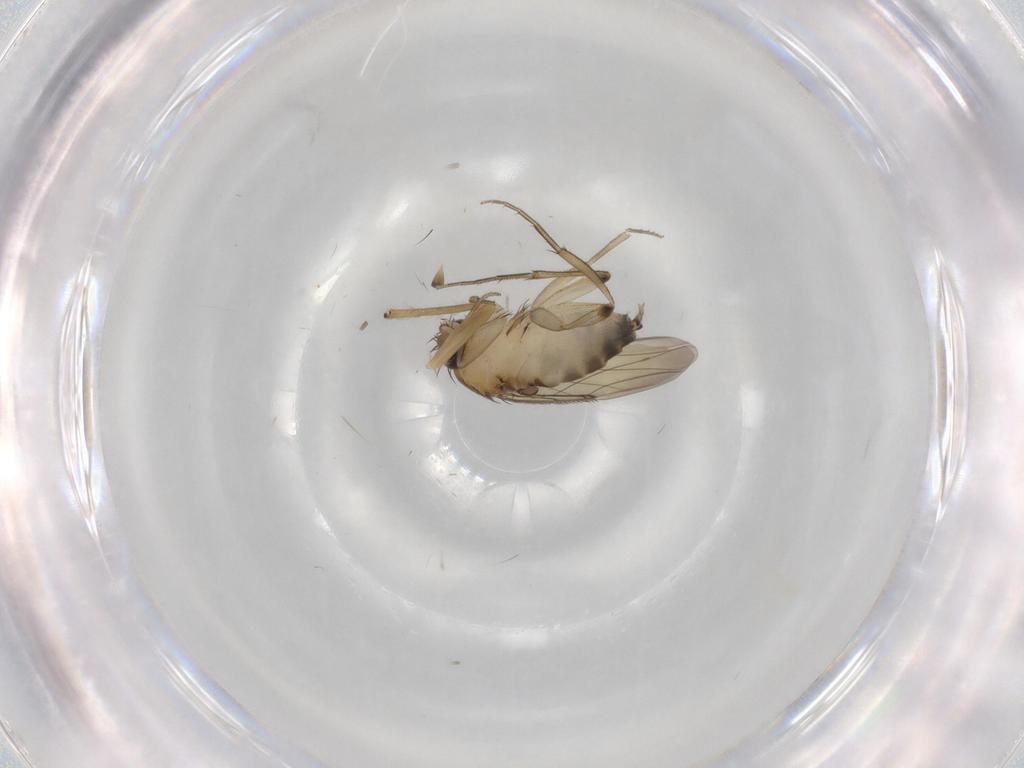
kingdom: Animalia
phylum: Arthropoda
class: Insecta
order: Diptera
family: Phoridae
